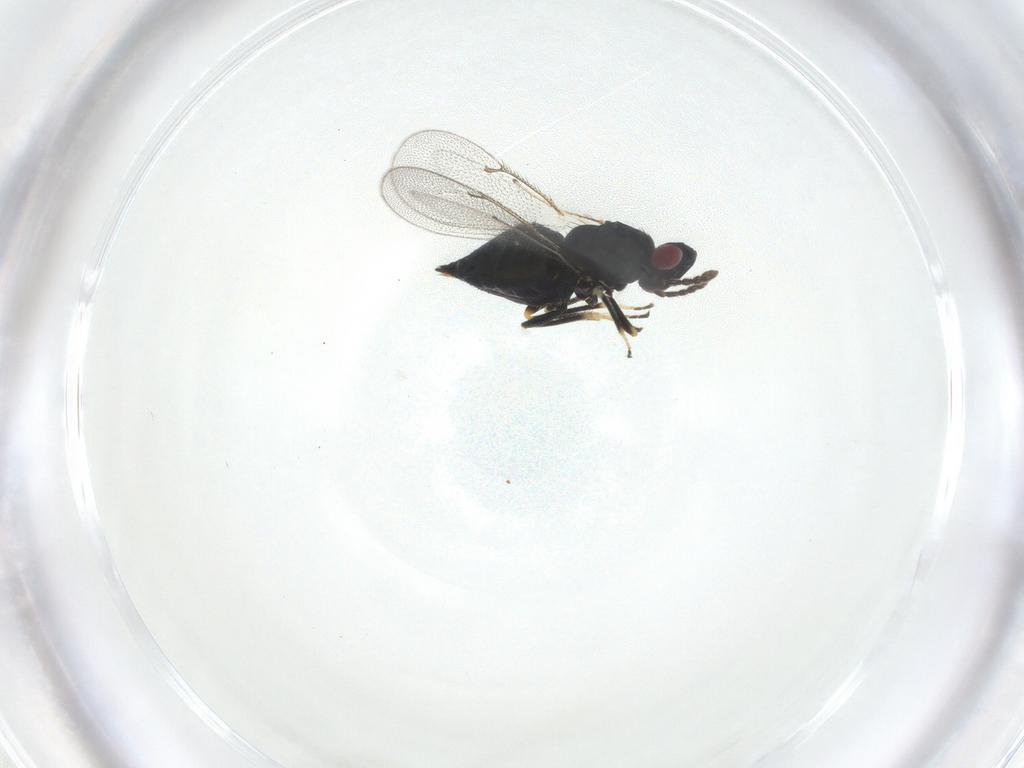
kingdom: Animalia
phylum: Arthropoda
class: Insecta
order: Hymenoptera
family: Eulophidae
